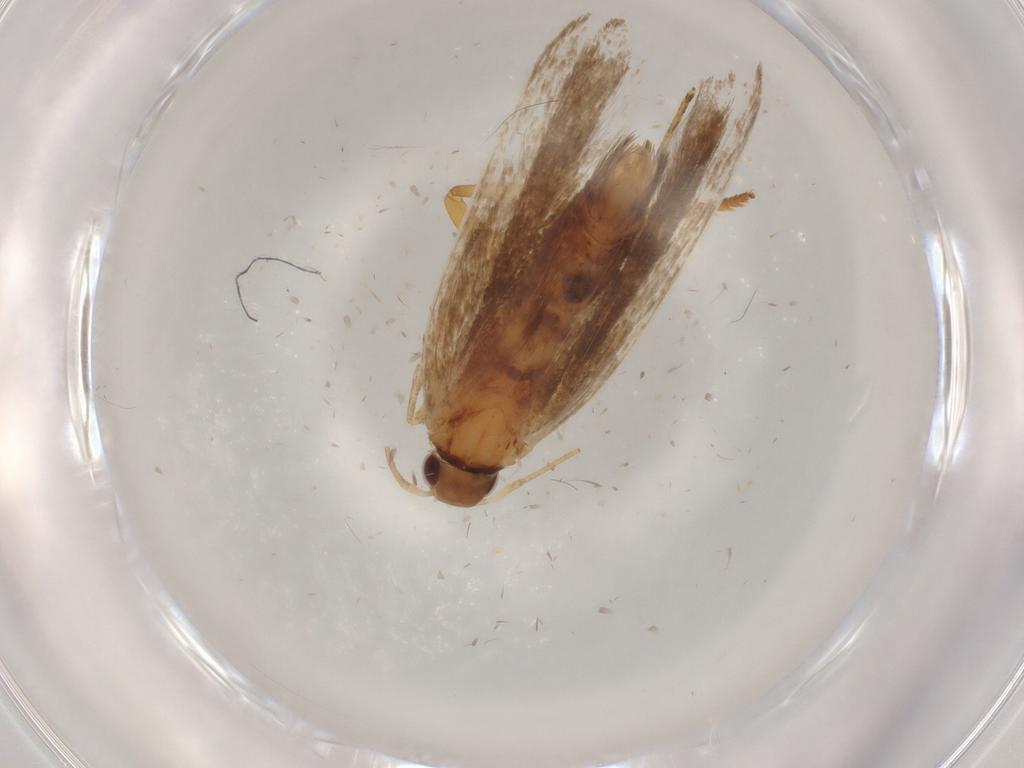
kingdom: Animalia
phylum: Arthropoda
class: Insecta
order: Lepidoptera
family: Gelechiidae
